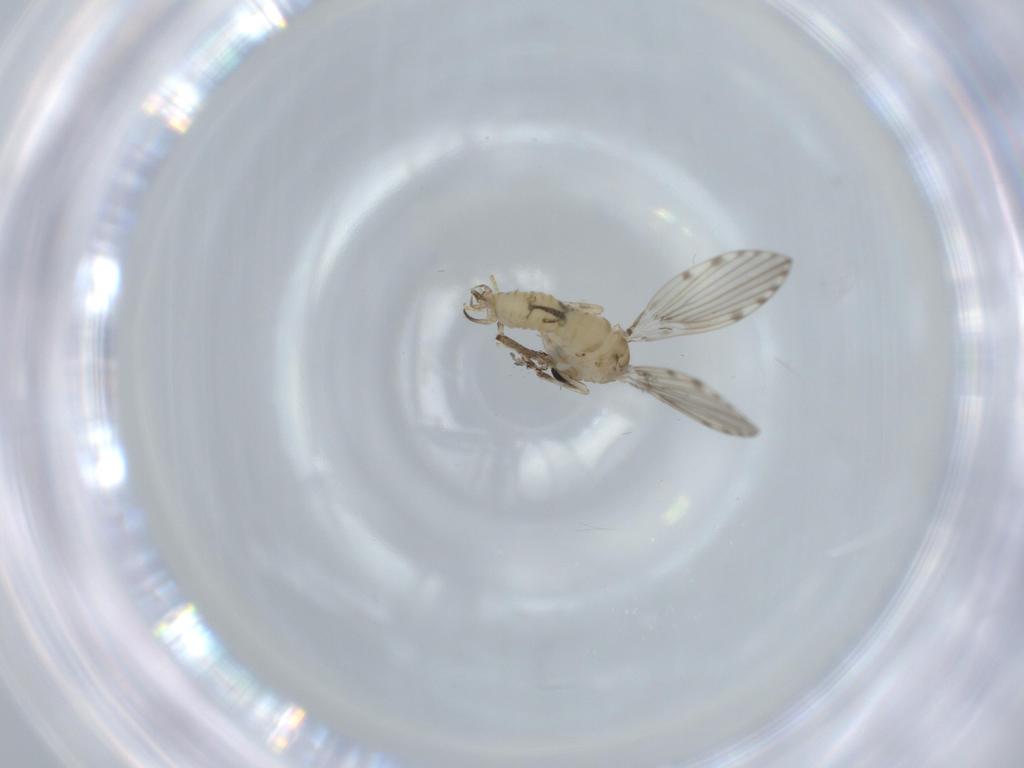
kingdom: Animalia
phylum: Arthropoda
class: Insecta
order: Diptera
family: Psychodidae
